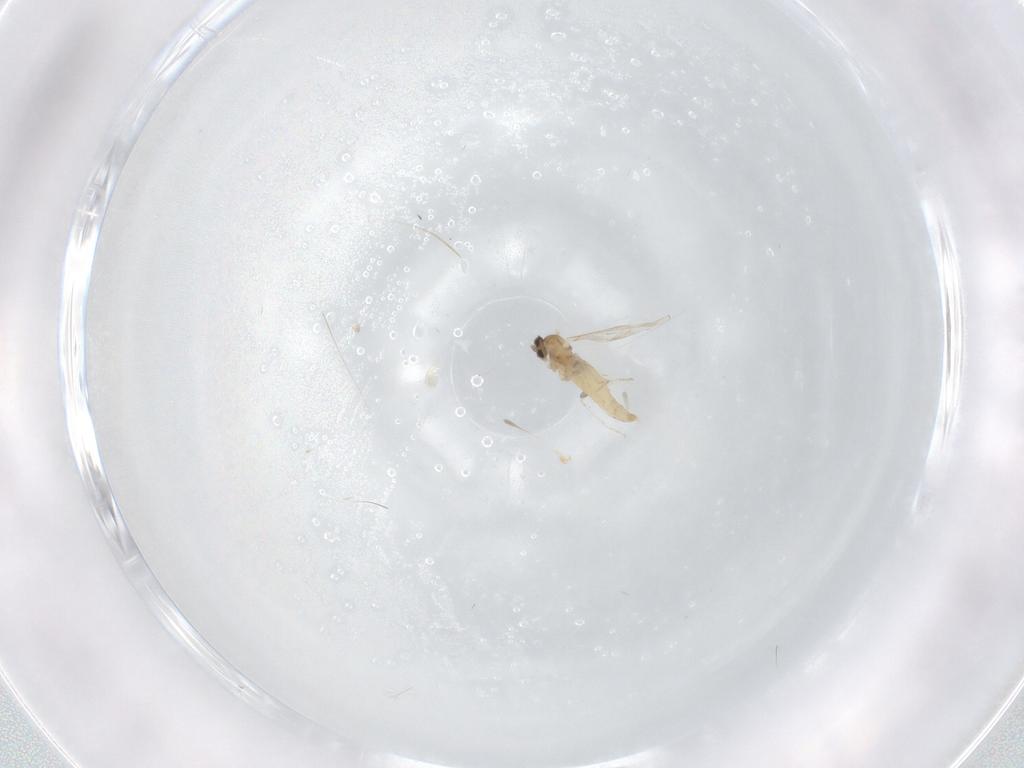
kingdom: Animalia
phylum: Arthropoda
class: Insecta
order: Diptera
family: Cecidomyiidae
